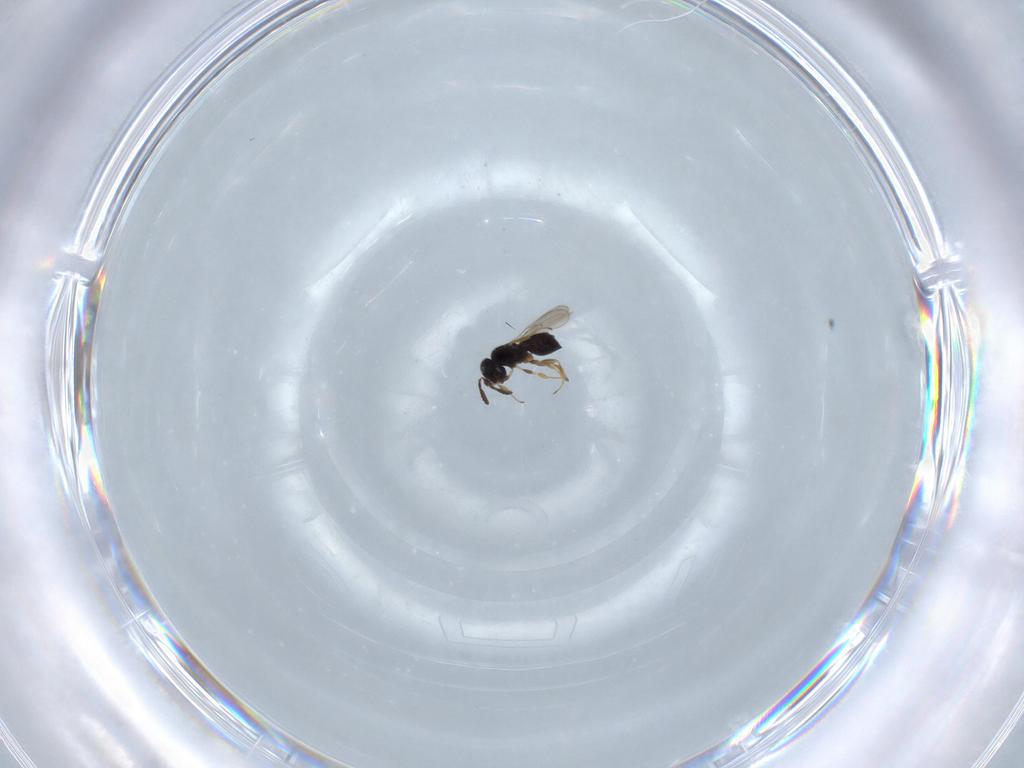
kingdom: Animalia
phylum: Arthropoda
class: Insecta
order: Hymenoptera
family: Scelionidae
